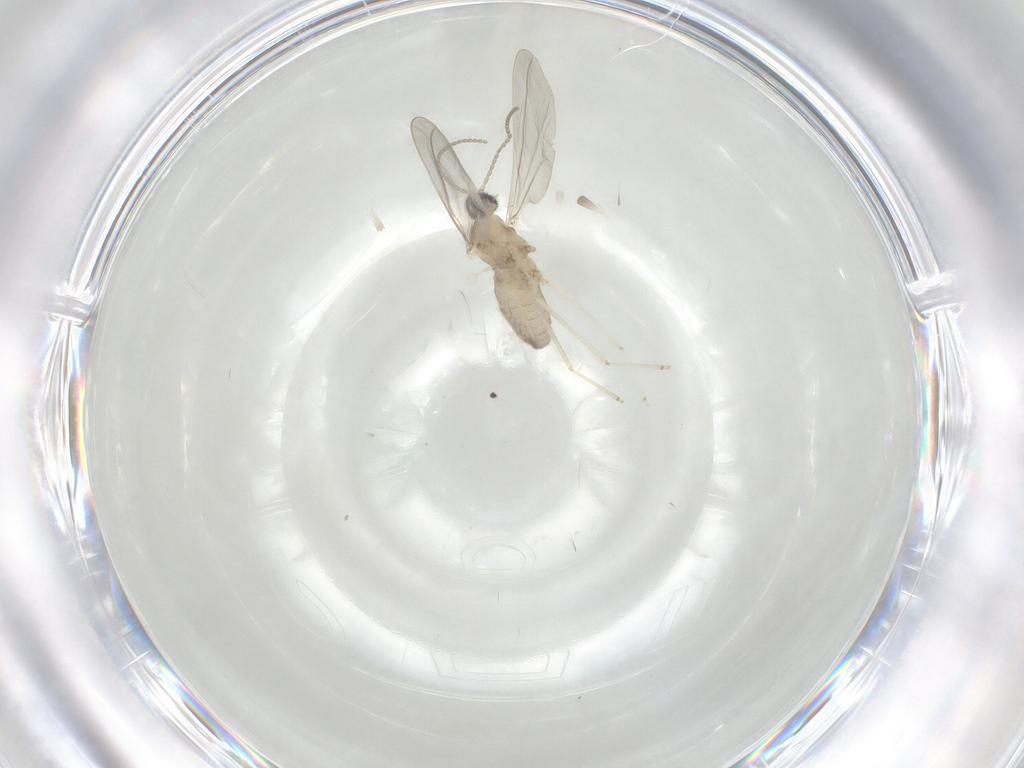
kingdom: Animalia
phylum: Arthropoda
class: Insecta
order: Diptera
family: Cecidomyiidae
